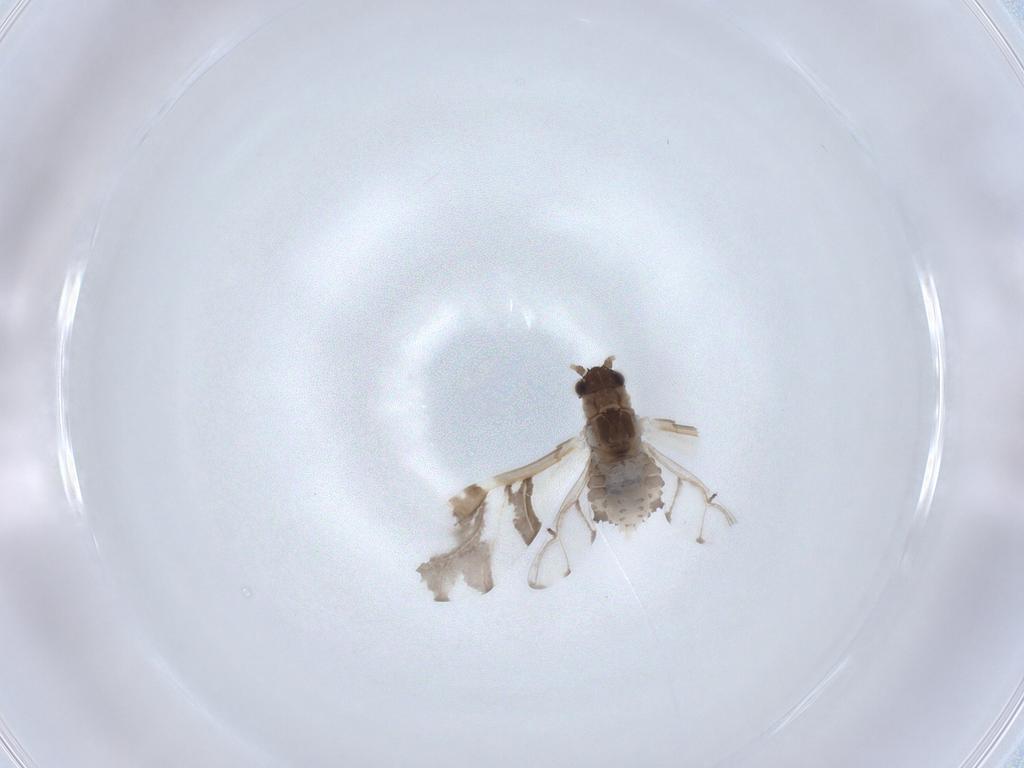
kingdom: Animalia
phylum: Arthropoda
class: Insecta
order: Hemiptera
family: Aphididae
